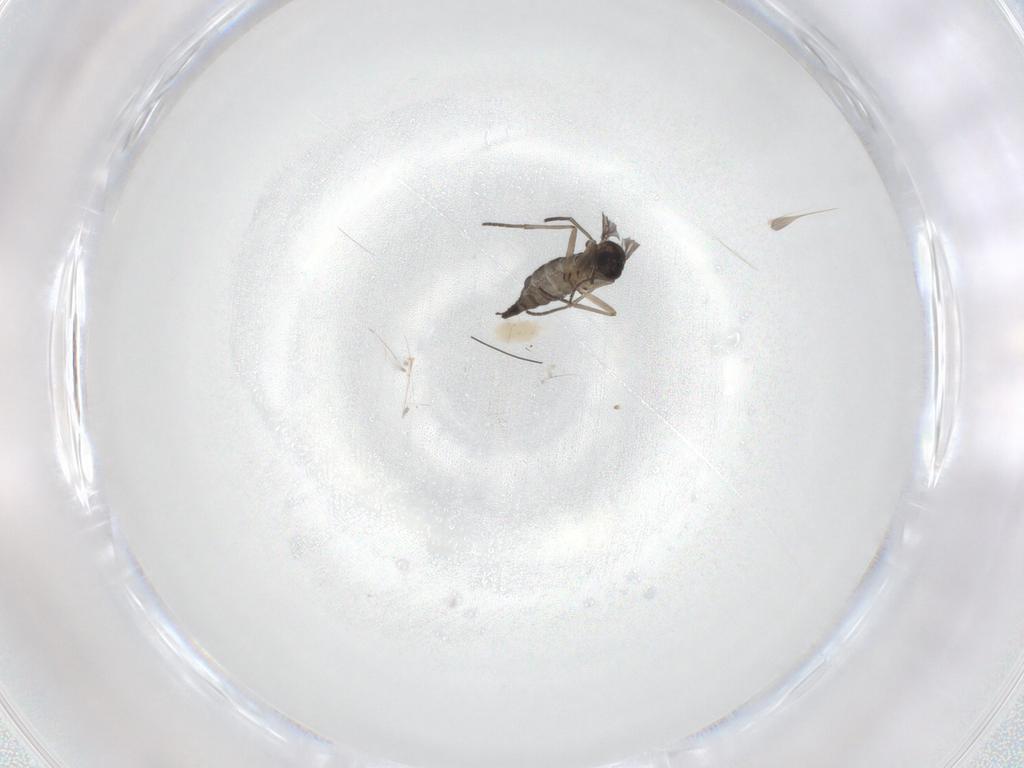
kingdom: Animalia
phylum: Arthropoda
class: Insecta
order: Diptera
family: Sciaridae
